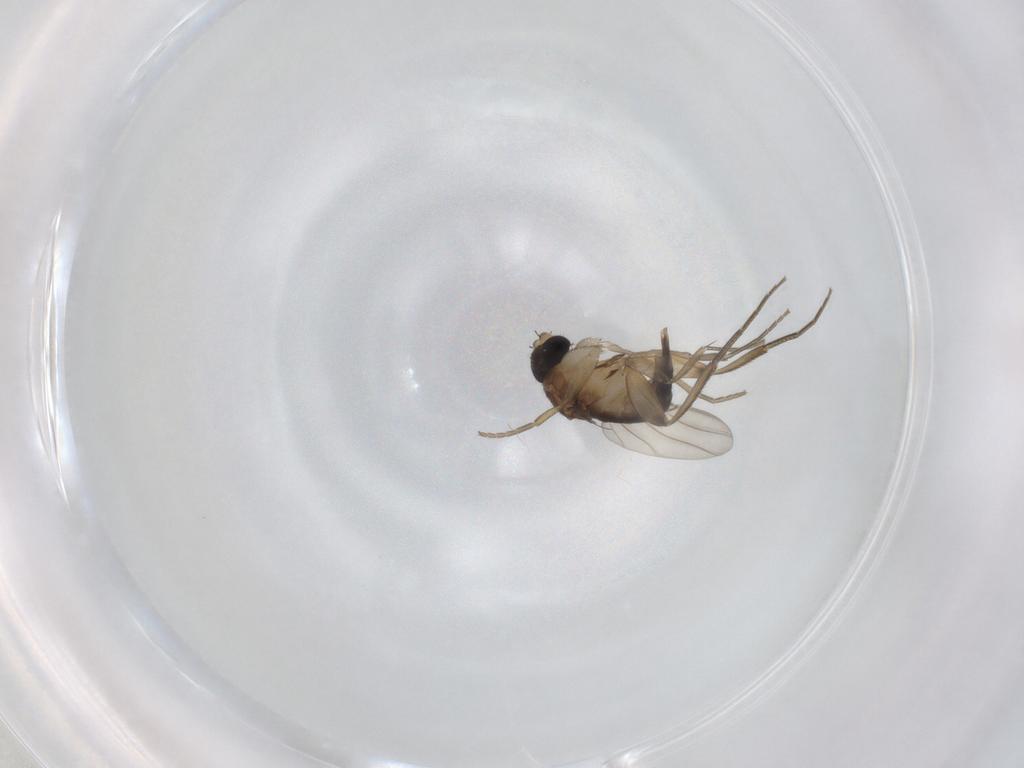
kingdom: Animalia
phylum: Arthropoda
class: Insecta
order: Diptera
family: Phoridae
